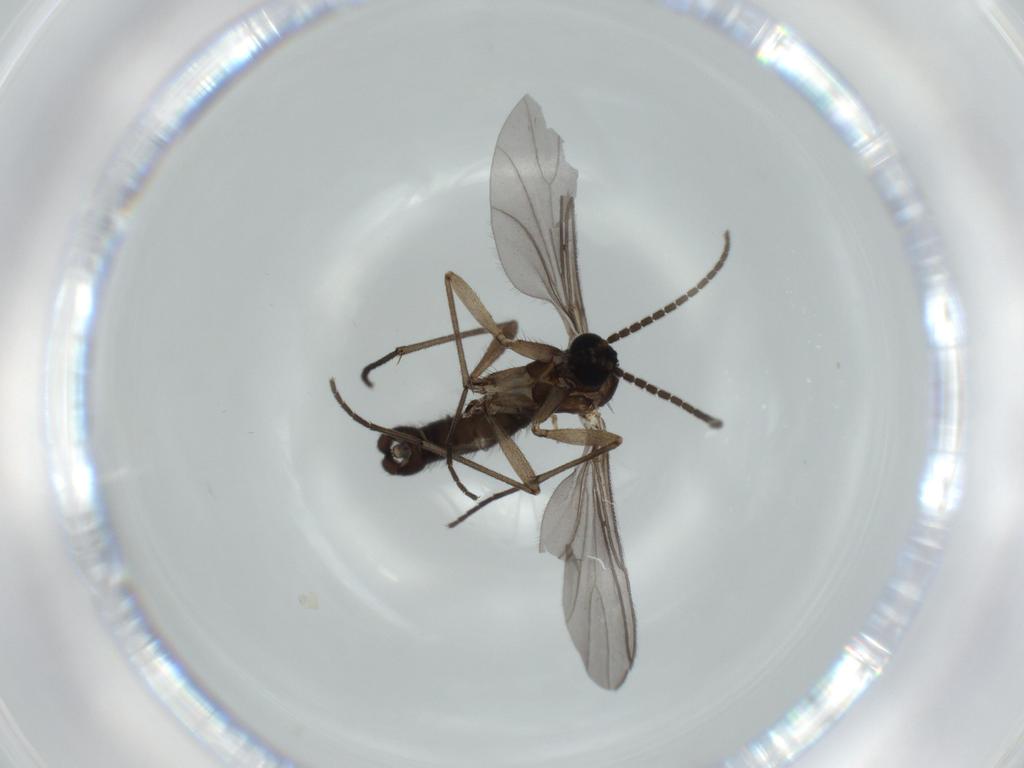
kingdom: Animalia
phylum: Arthropoda
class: Insecta
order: Diptera
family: Sciaridae
